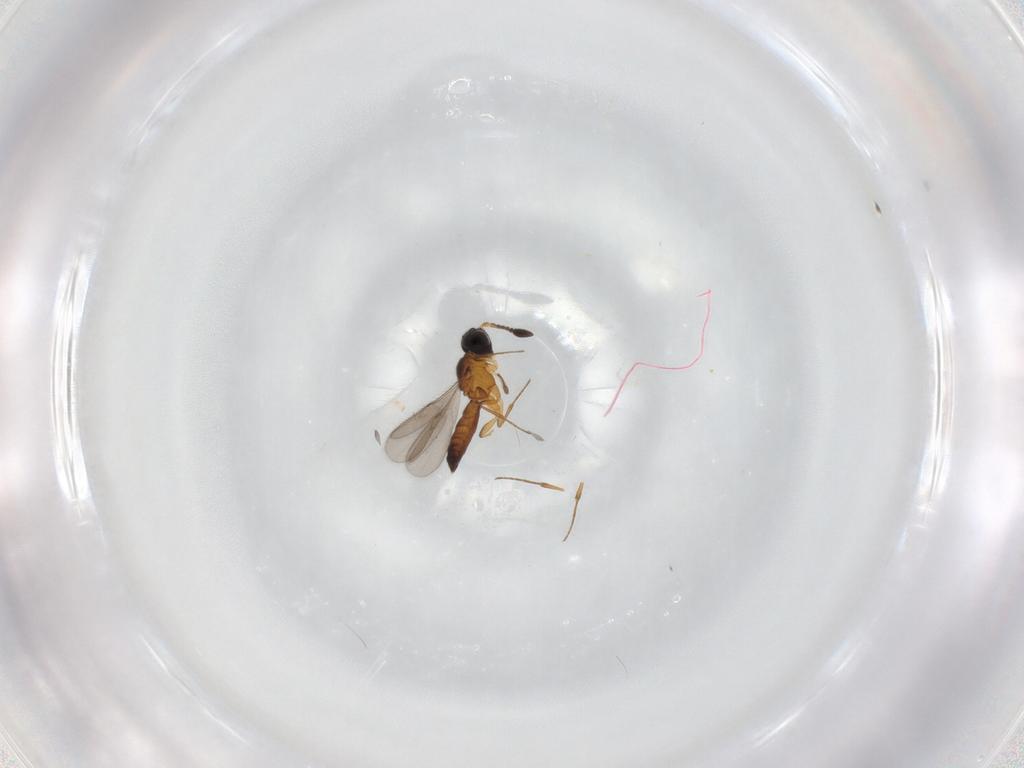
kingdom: Animalia
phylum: Arthropoda
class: Insecta
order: Hymenoptera
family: Scelionidae
